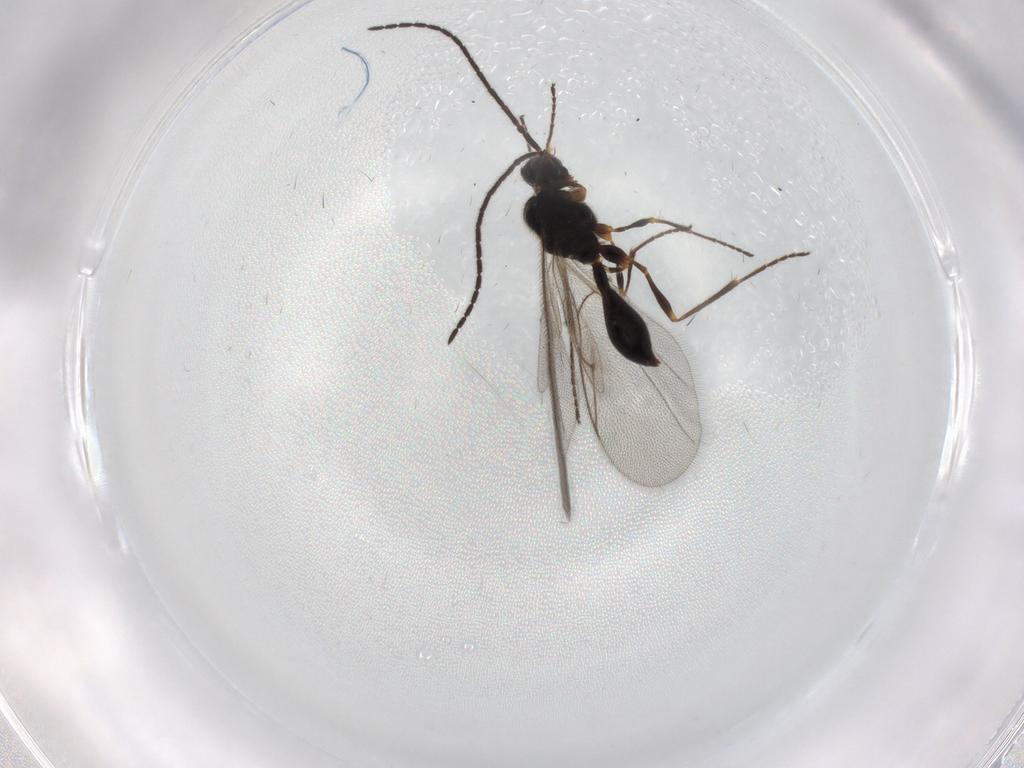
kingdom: Animalia
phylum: Arthropoda
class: Insecta
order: Hymenoptera
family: Diapriidae
